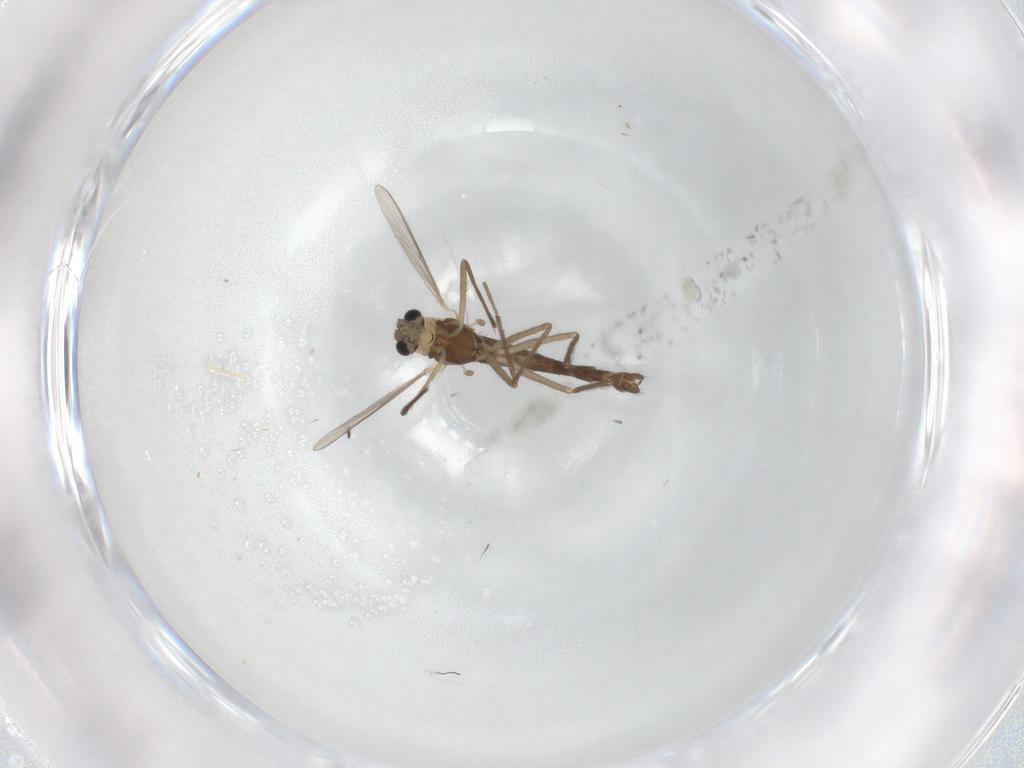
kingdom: Animalia
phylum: Arthropoda
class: Insecta
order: Diptera
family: Chironomidae
